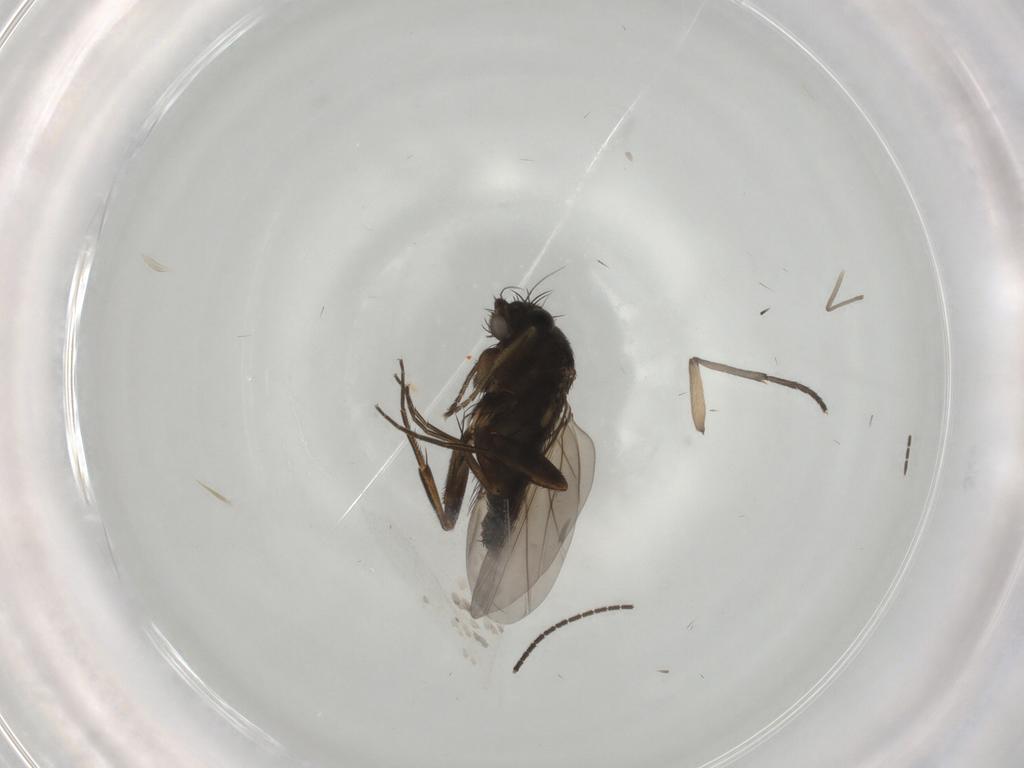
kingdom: Animalia
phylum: Arthropoda
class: Insecta
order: Diptera
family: Phoridae
